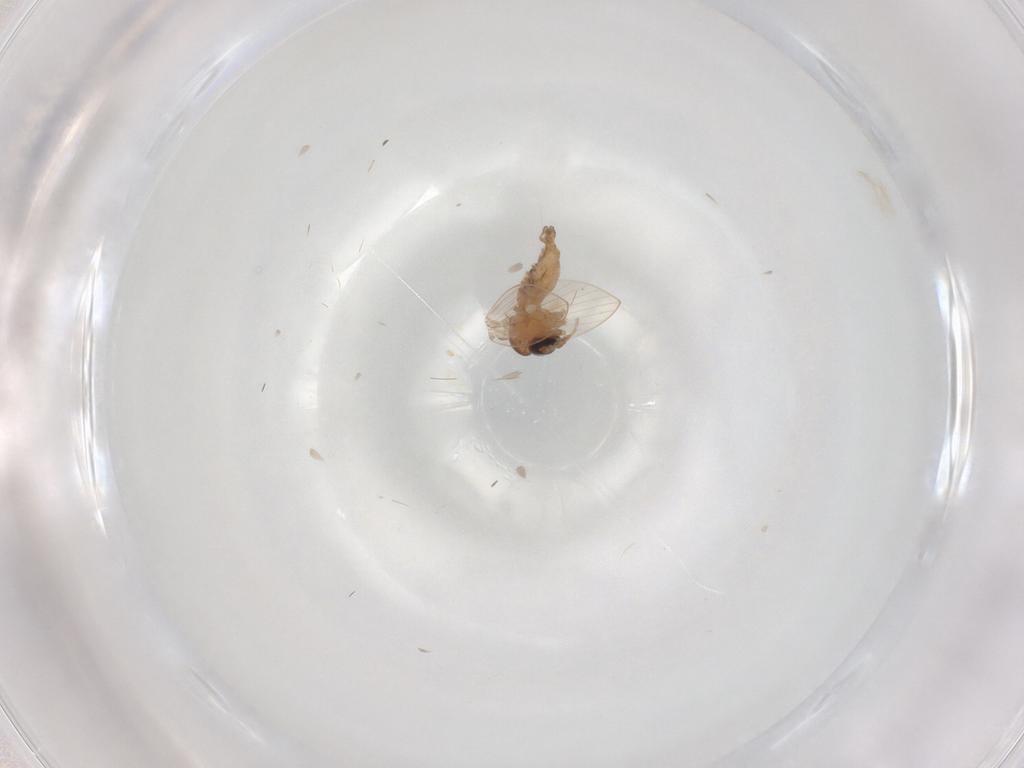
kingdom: Animalia
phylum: Arthropoda
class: Insecta
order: Diptera
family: Psychodidae
